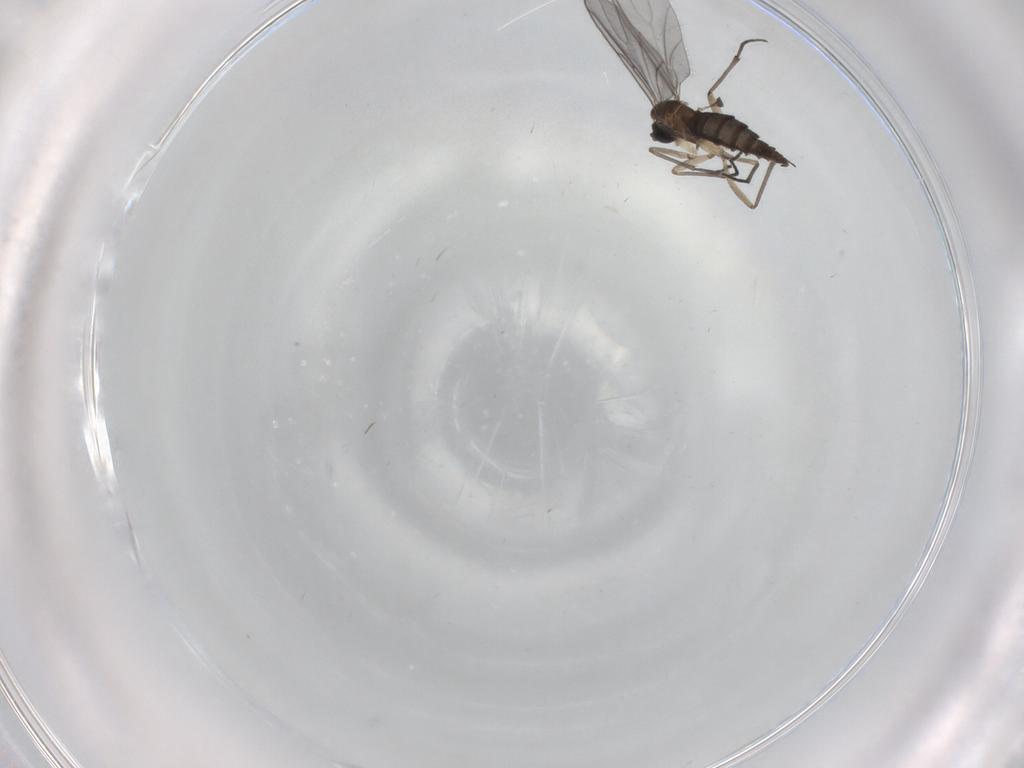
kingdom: Animalia
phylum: Arthropoda
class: Insecta
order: Diptera
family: Sciaridae
